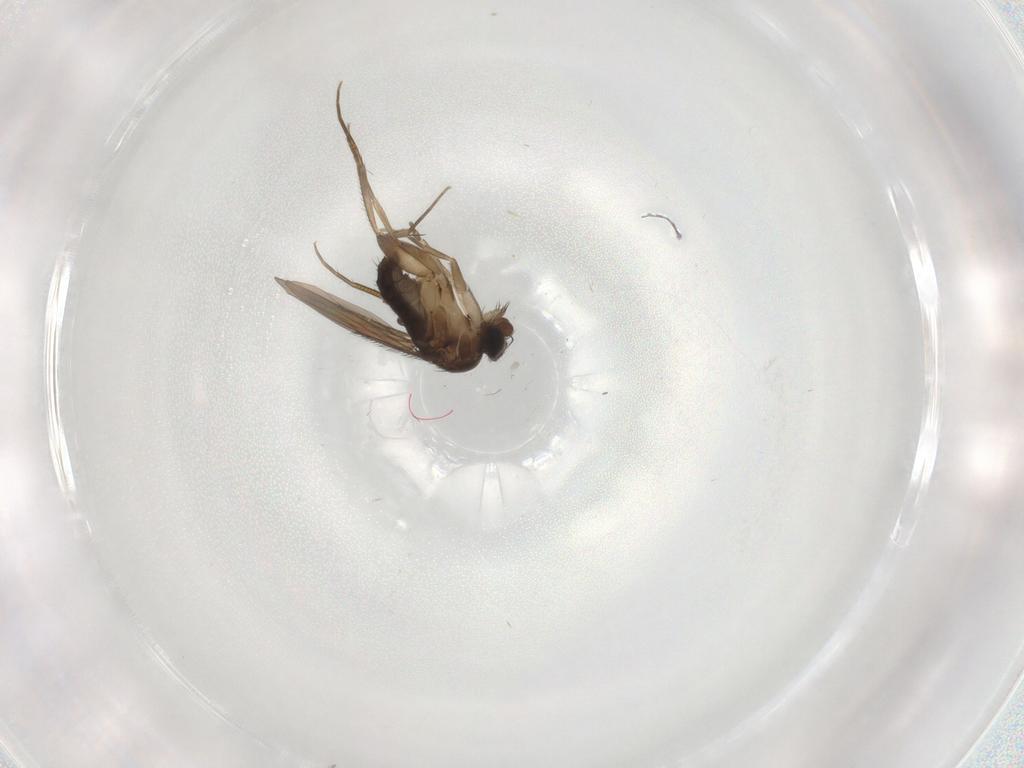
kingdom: Animalia
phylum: Arthropoda
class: Insecta
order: Diptera
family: Phoridae
